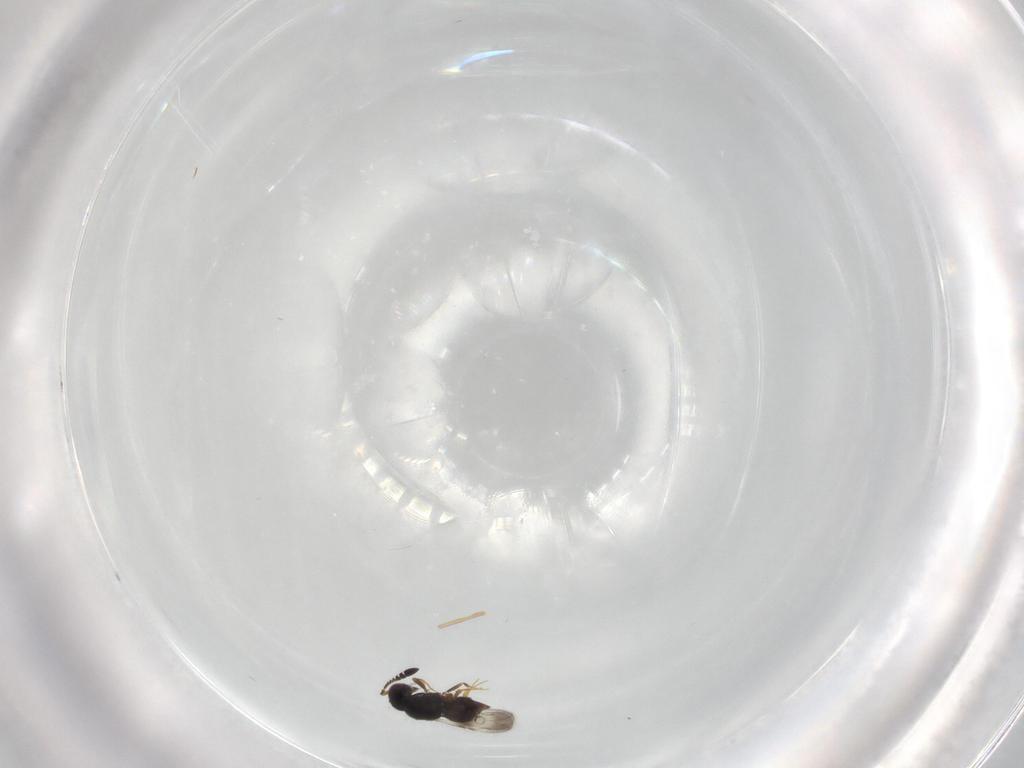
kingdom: Animalia
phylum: Arthropoda
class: Insecta
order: Hymenoptera
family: Ceraphronidae
